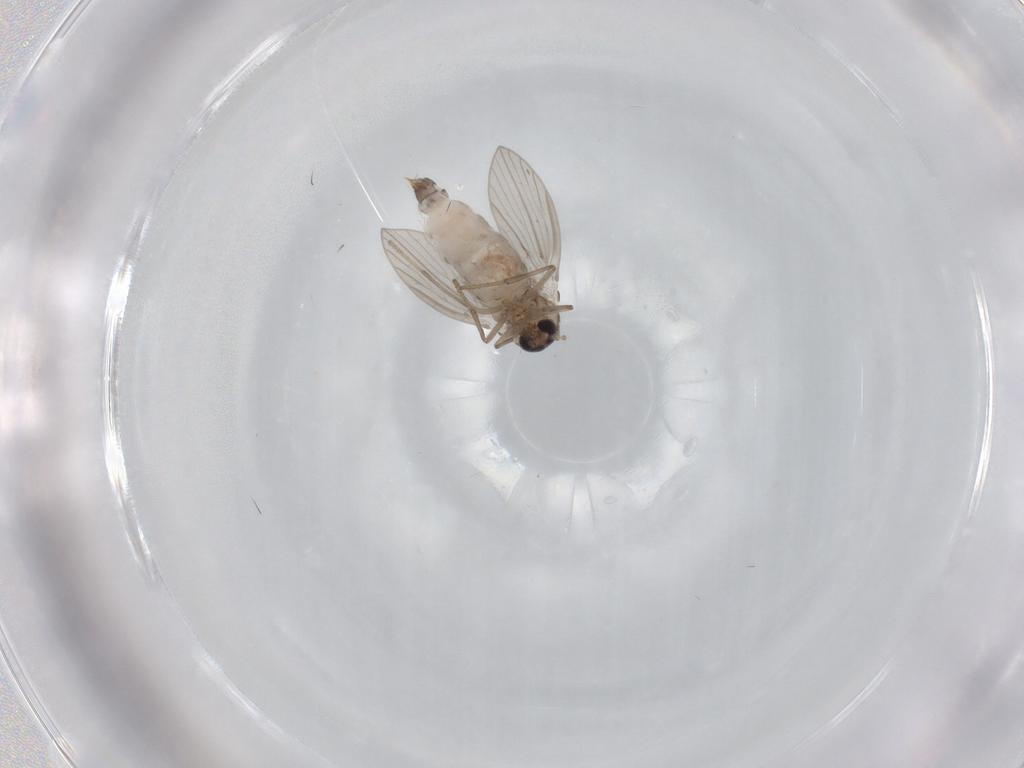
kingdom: Animalia
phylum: Arthropoda
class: Insecta
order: Diptera
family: Psychodidae
